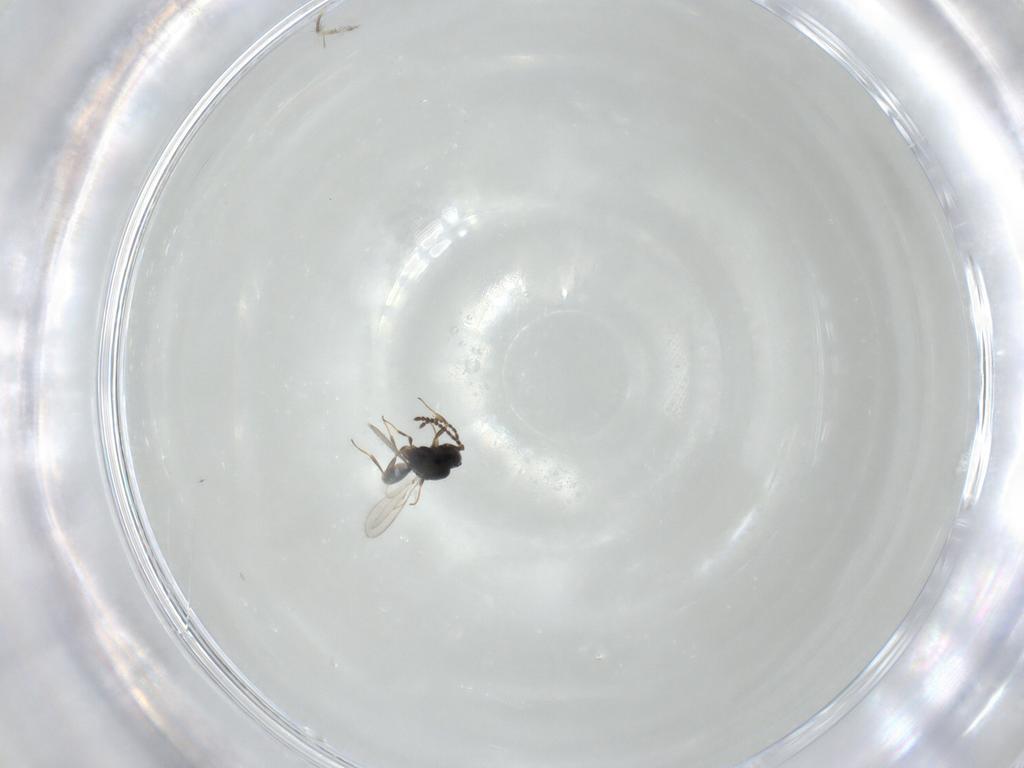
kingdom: Animalia
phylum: Arthropoda
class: Insecta
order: Hymenoptera
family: Scelionidae
